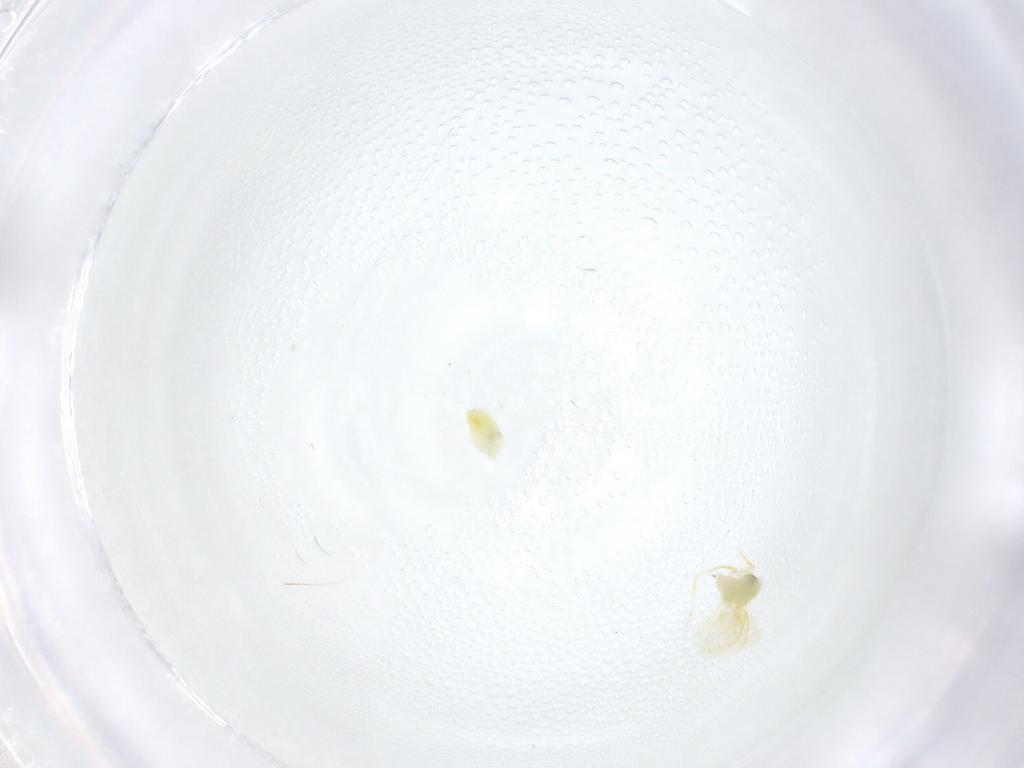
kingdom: Animalia
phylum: Arthropoda
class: Insecta
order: Hemiptera
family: Aleyrodidae
